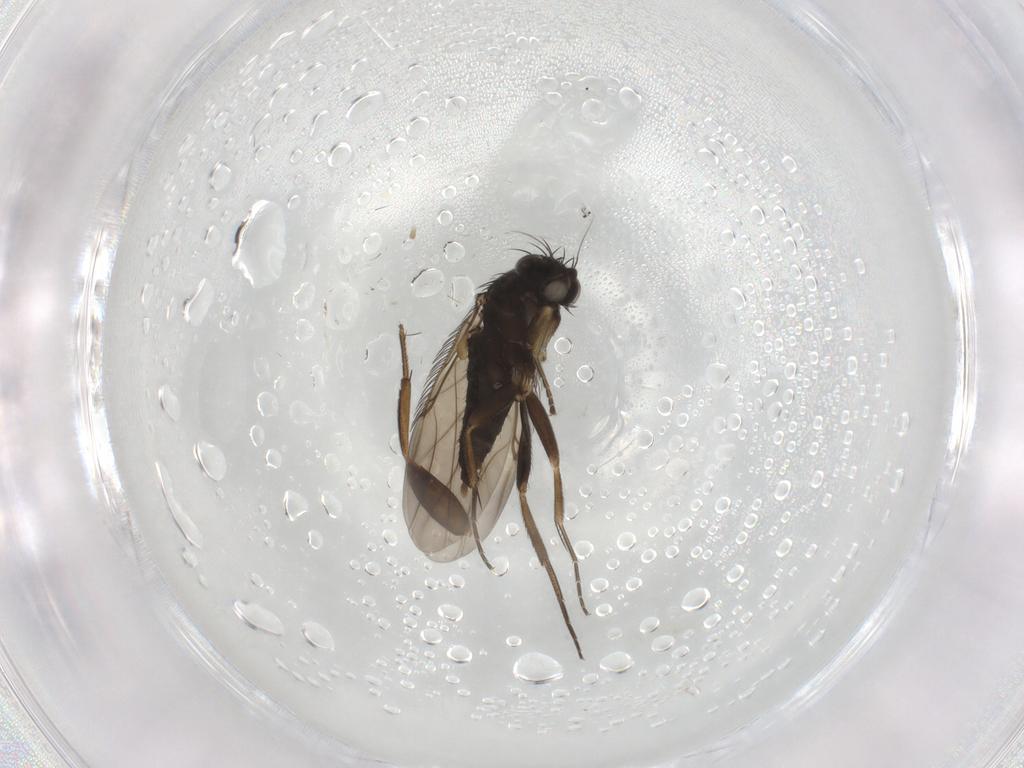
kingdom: Animalia
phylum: Arthropoda
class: Insecta
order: Diptera
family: Phoridae
